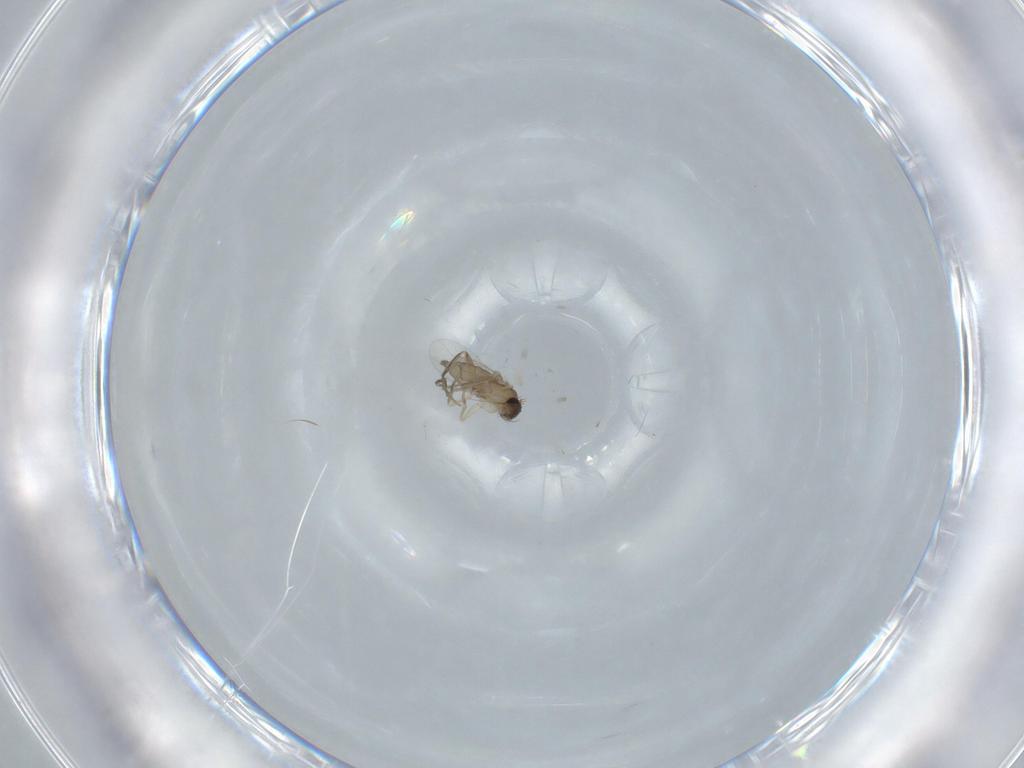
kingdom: Animalia
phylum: Arthropoda
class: Insecta
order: Diptera
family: Phoridae
